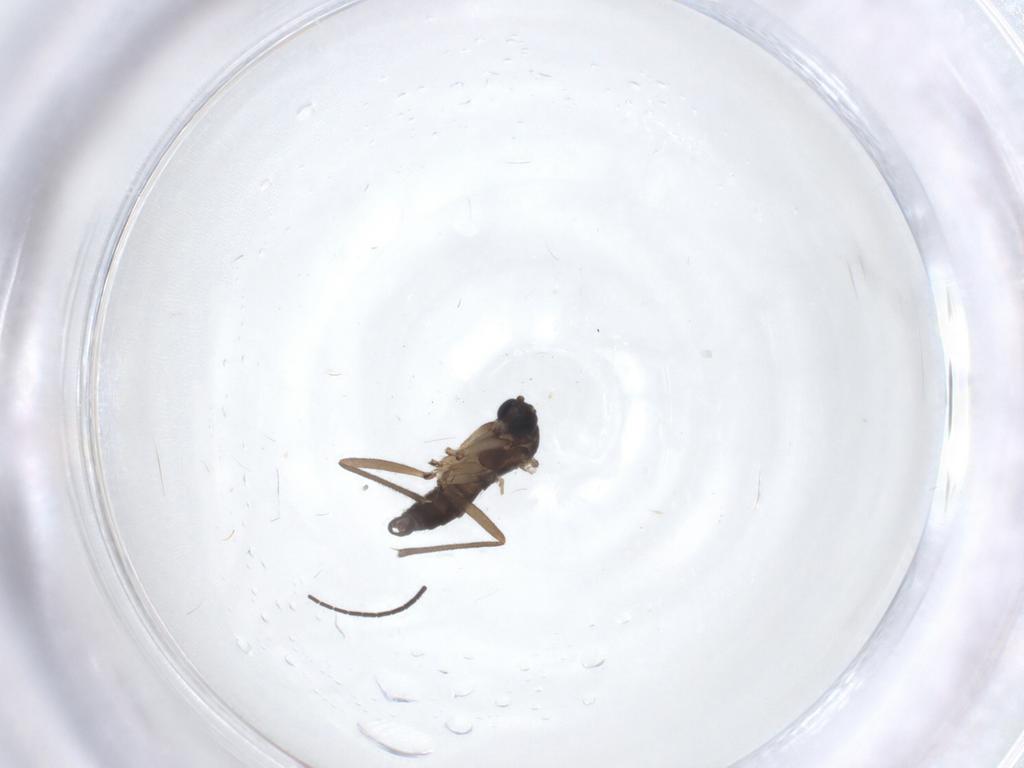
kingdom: Animalia
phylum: Arthropoda
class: Insecta
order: Diptera
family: Sciaridae
